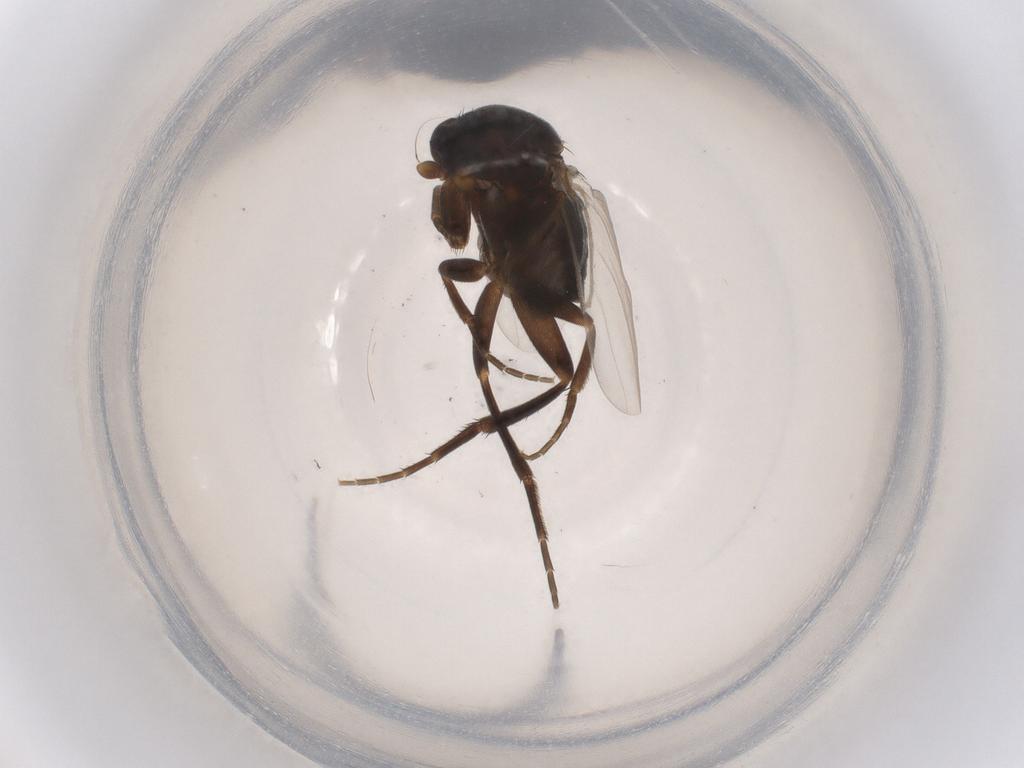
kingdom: Animalia
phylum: Arthropoda
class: Insecta
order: Diptera
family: Phoridae
